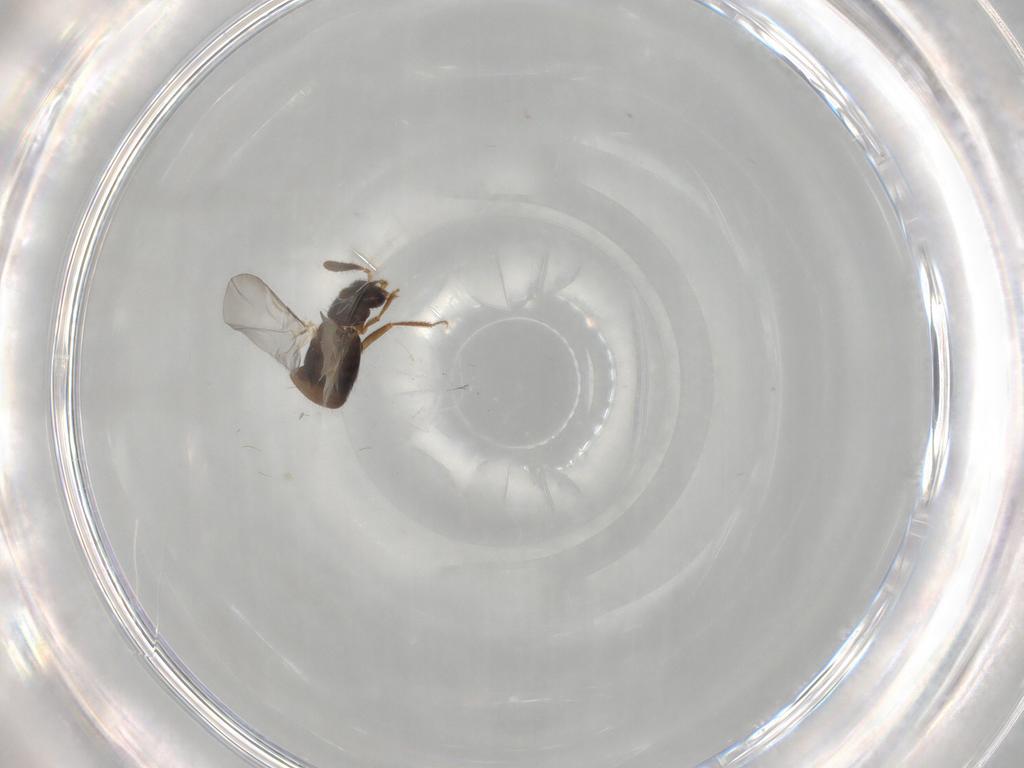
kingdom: Animalia
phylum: Arthropoda
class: Insecta
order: Coleoptera
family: Staphylinidae
